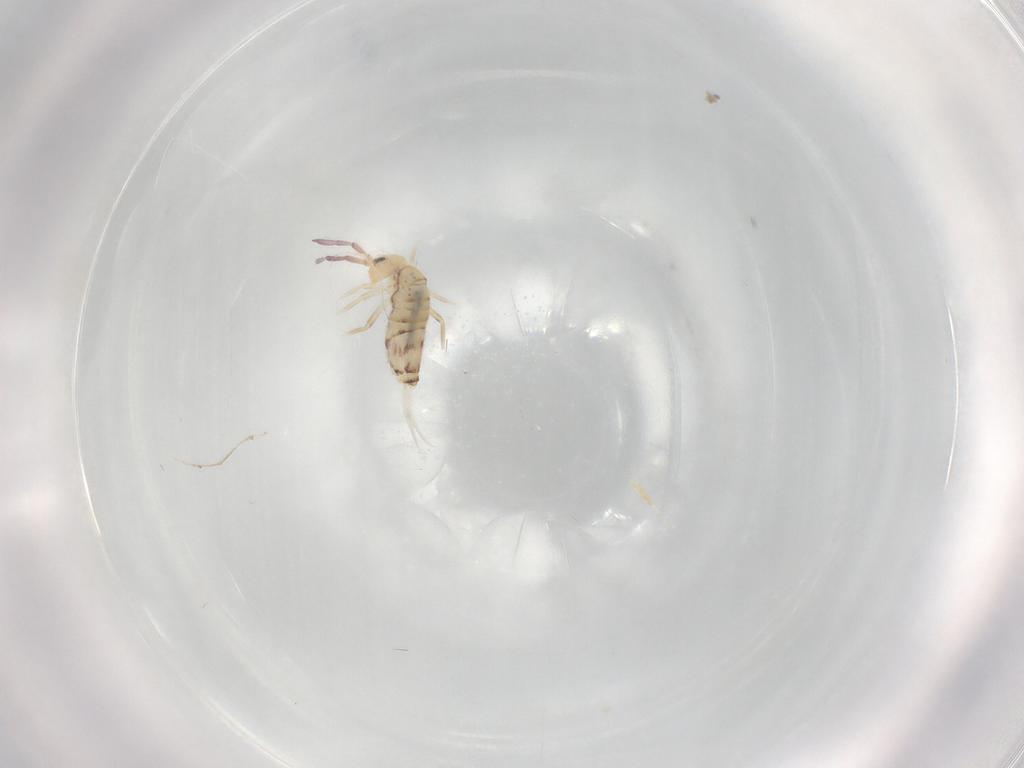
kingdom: Animalia
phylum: Arthropoda
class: Collembola
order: Entomobryomorpha
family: Entomobryidae
